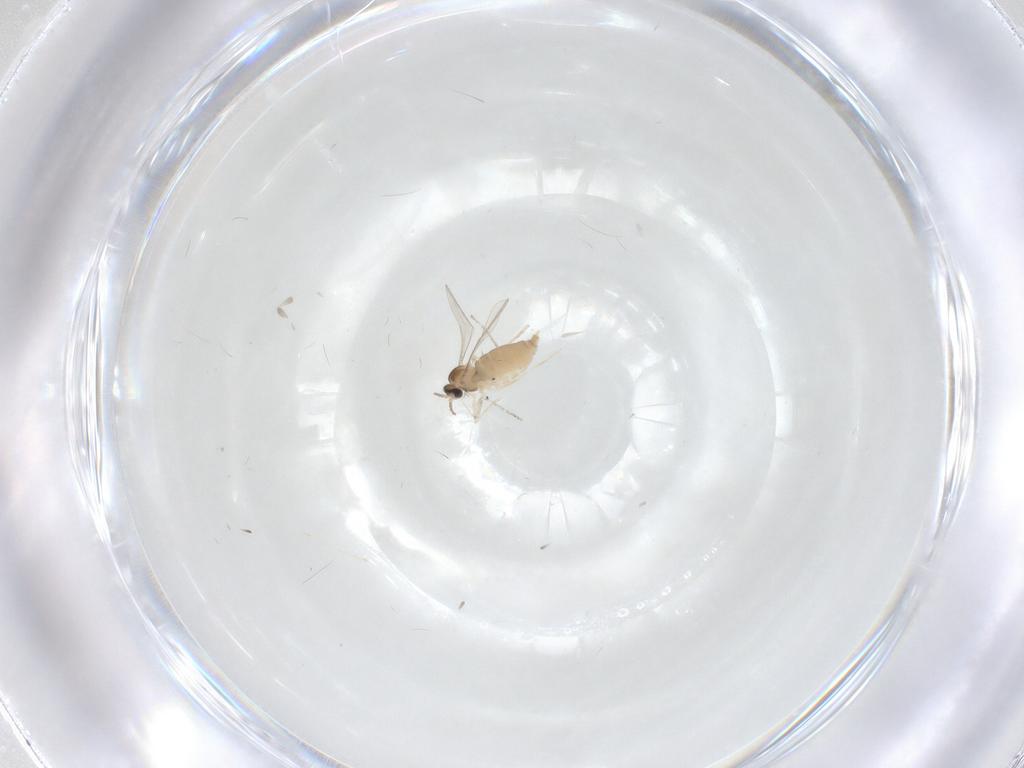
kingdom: Animalia
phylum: Arthropoda
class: Insecta
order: Diptera
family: Cecidomyiidae
